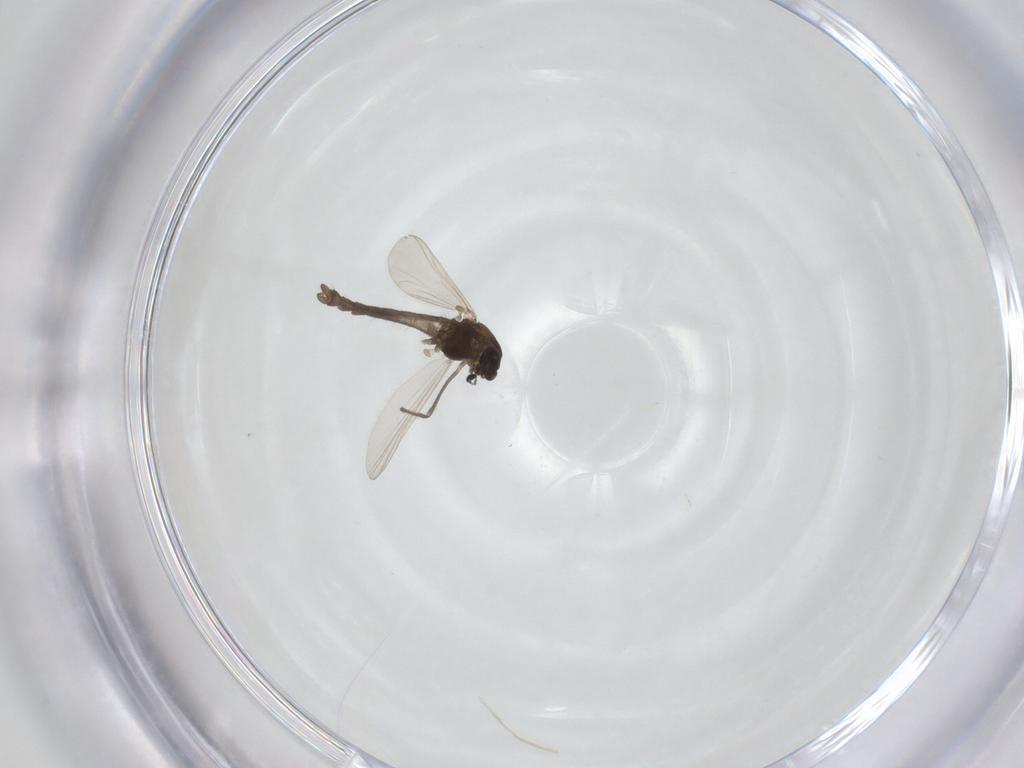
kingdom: Animalia
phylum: Arthropoda
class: Insecta
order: Diptera
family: Chironomidae
